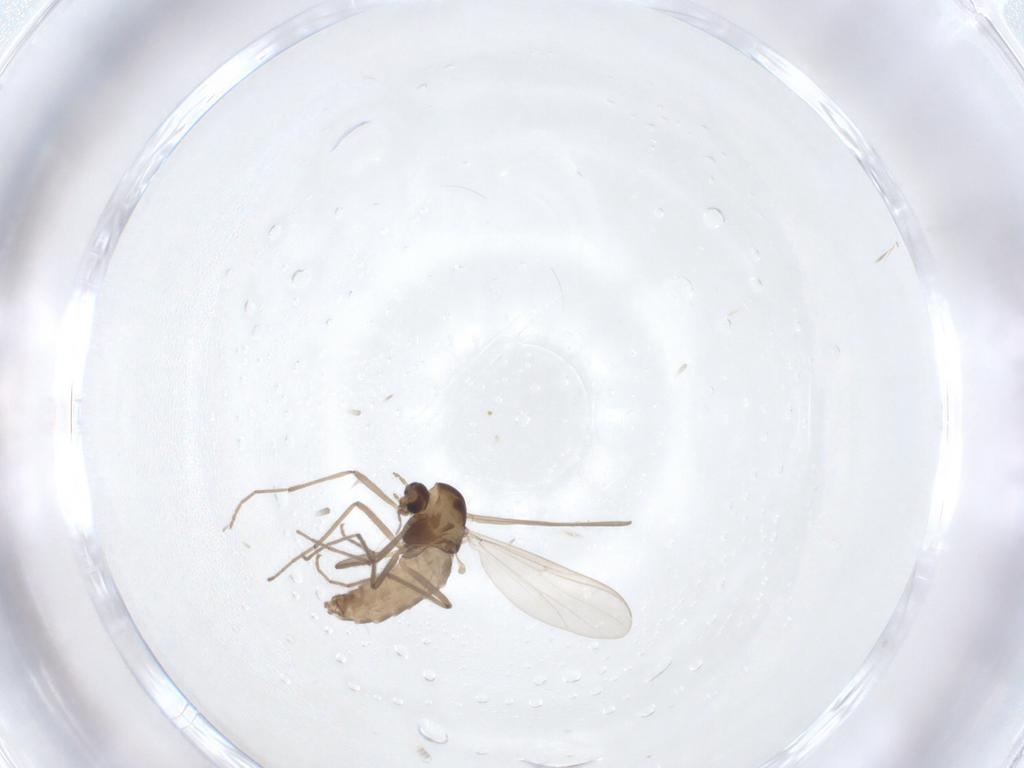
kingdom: Animalia
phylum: Arthropoda
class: Insecta
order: Diptera
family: Chironomidae
